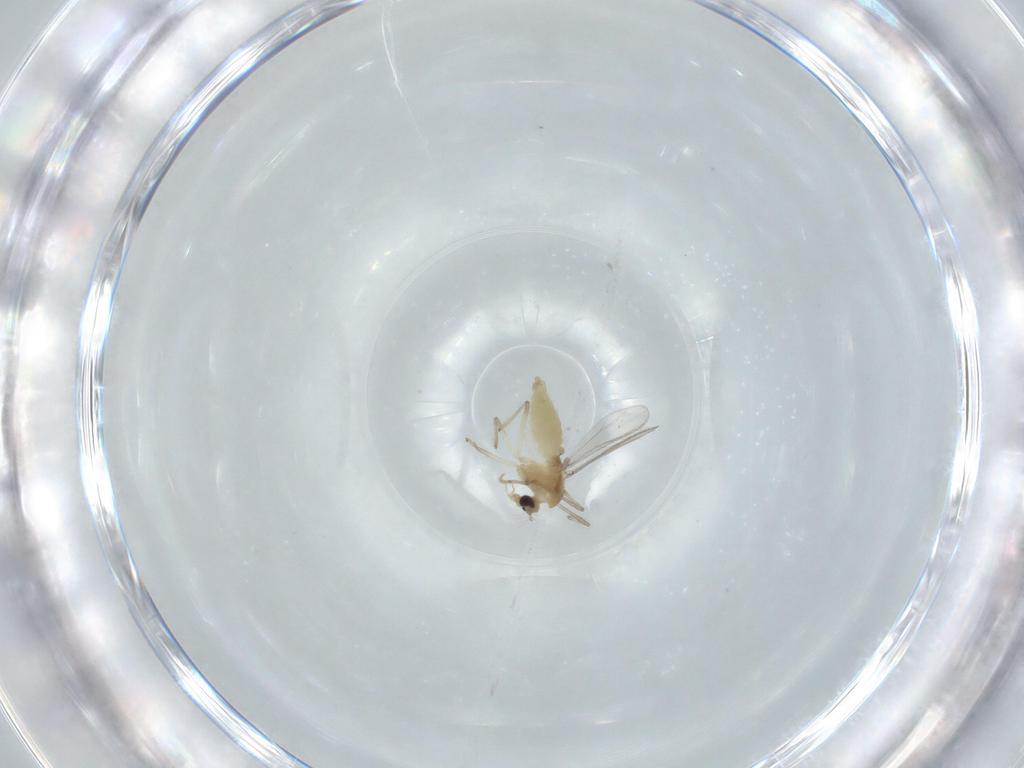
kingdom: Animalia
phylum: Arthropoda
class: Insecta
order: Diptera
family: Chironomidae
